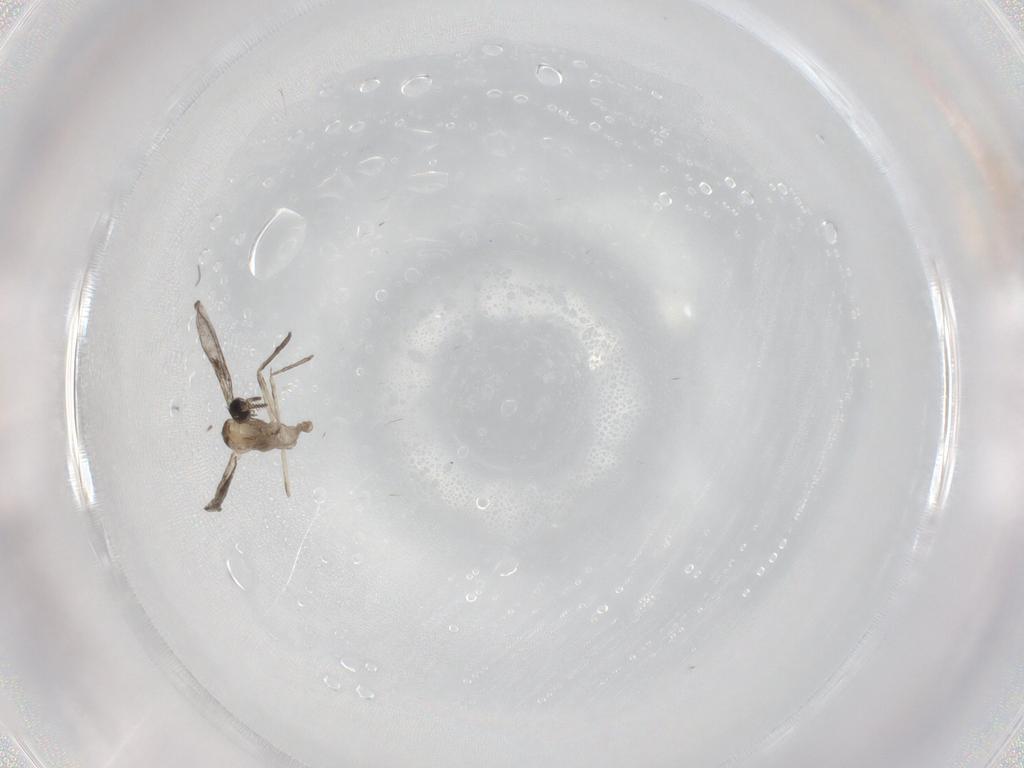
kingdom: Animalia
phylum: Arthropoda
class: Insecta
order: Diptera
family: Cecidomyiidae
